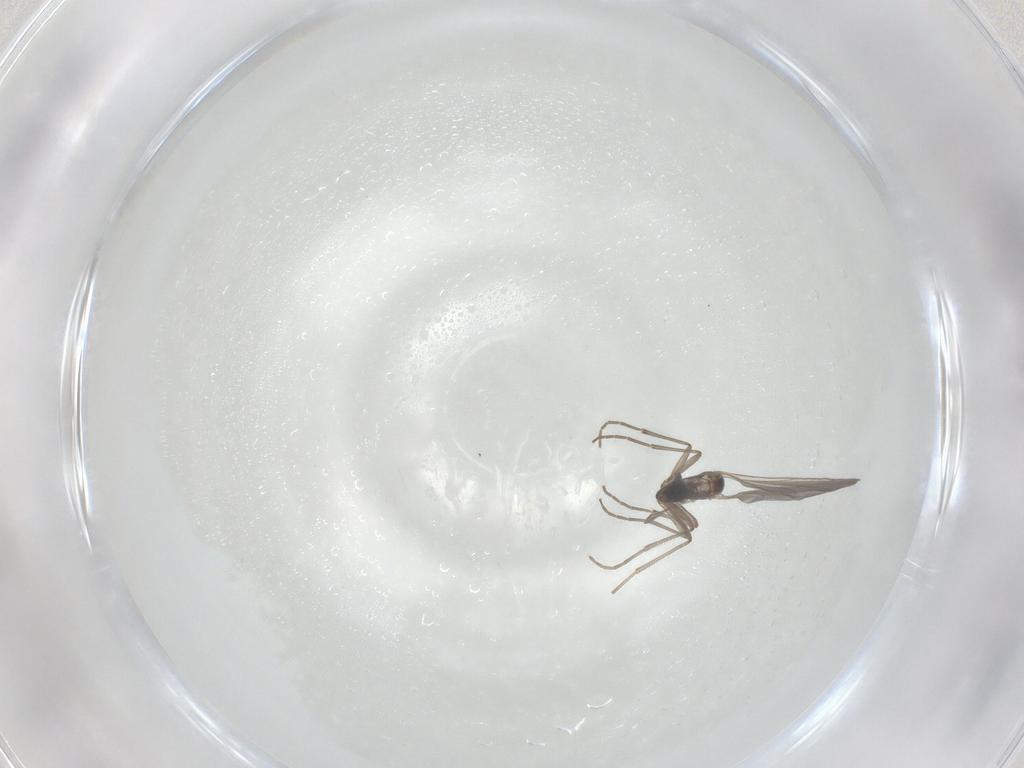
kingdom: Animalia
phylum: Arthropoda
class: Insecta
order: Diptera
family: Sciaridae
